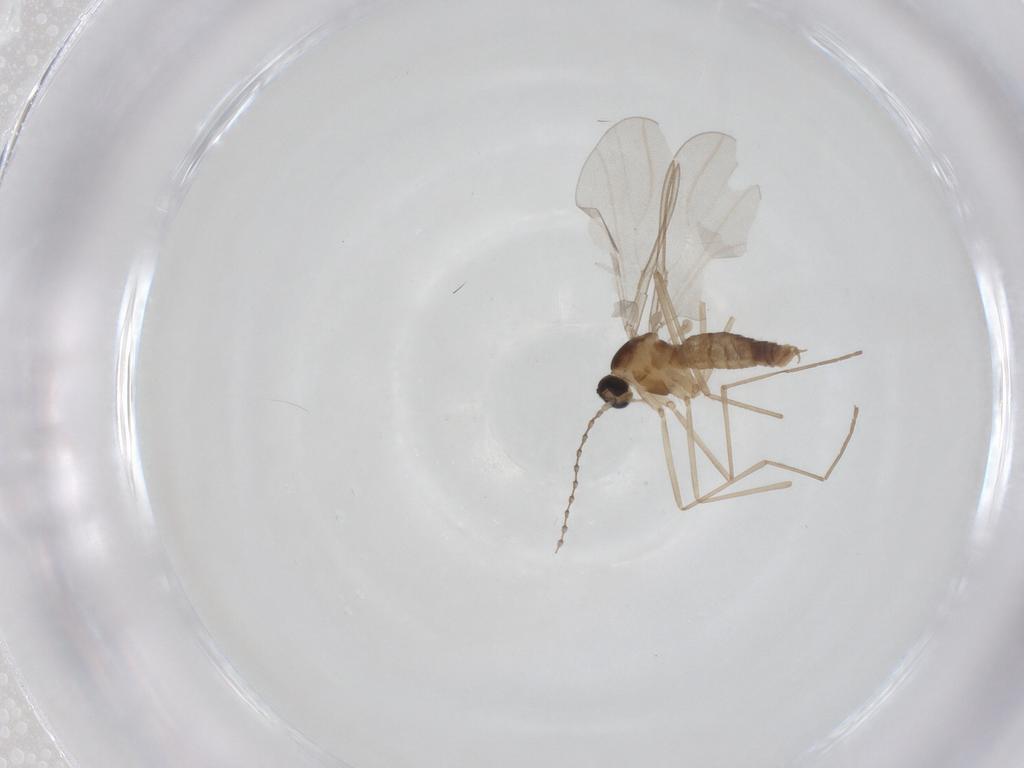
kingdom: Animalia
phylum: Arthropoda
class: Insecta
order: Diptera
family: Cecidomyiidae
